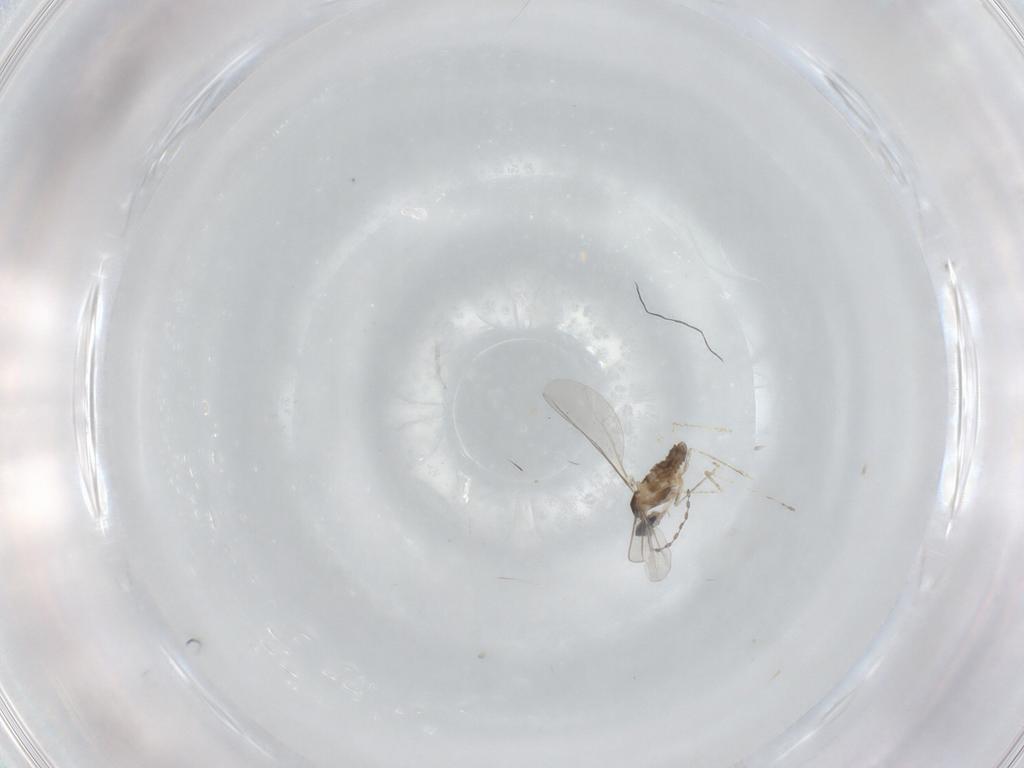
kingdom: Animalia
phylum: Arthropoda
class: Insecta
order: Diptera
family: Cecidomyiidae
